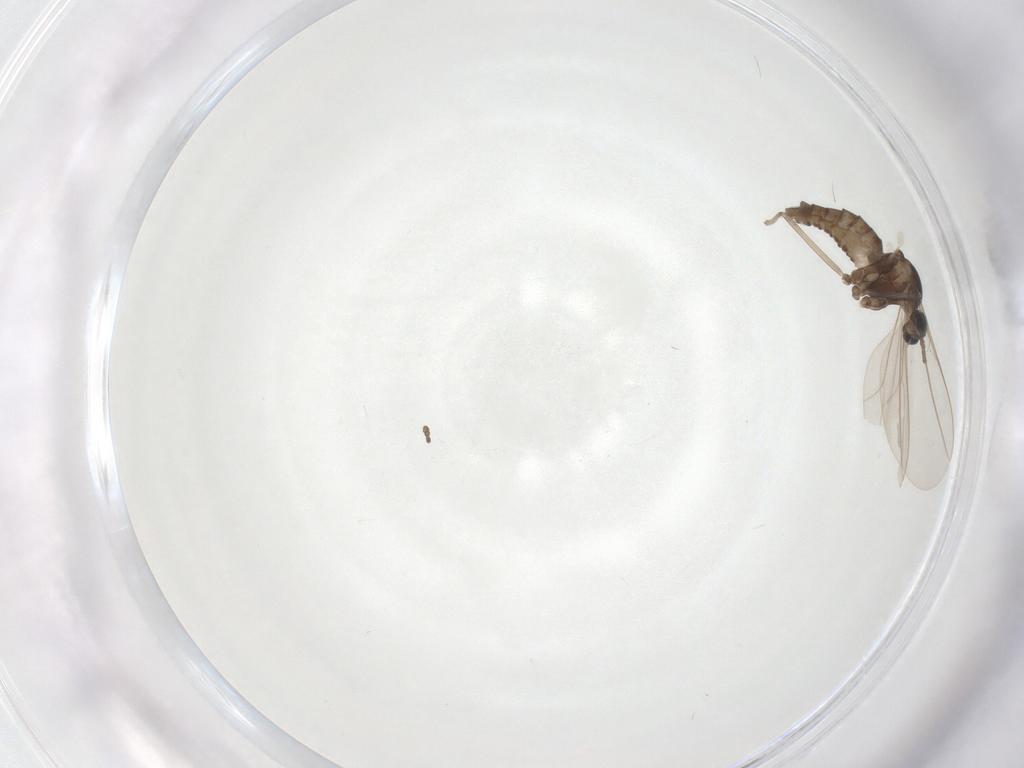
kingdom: Animalia
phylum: Arthropoda
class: Insecta
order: Diptera
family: Cecidomyiidae
